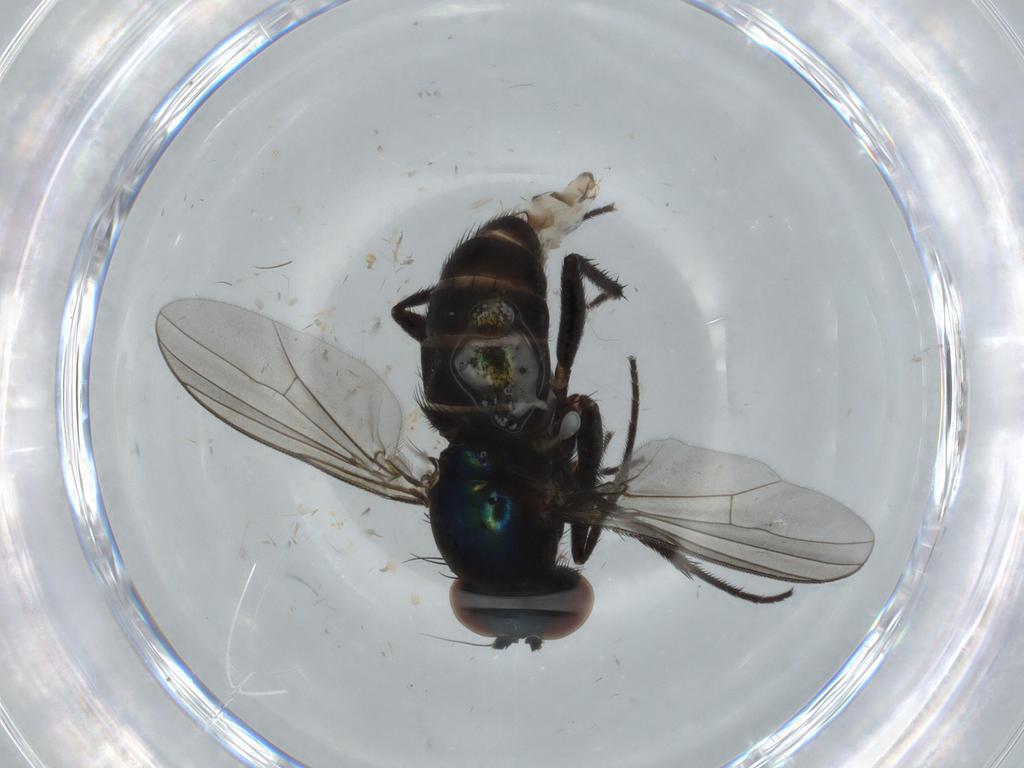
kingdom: Animalia
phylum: Arthropoda
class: Insecta
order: Diptera
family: Dolichopodidae
